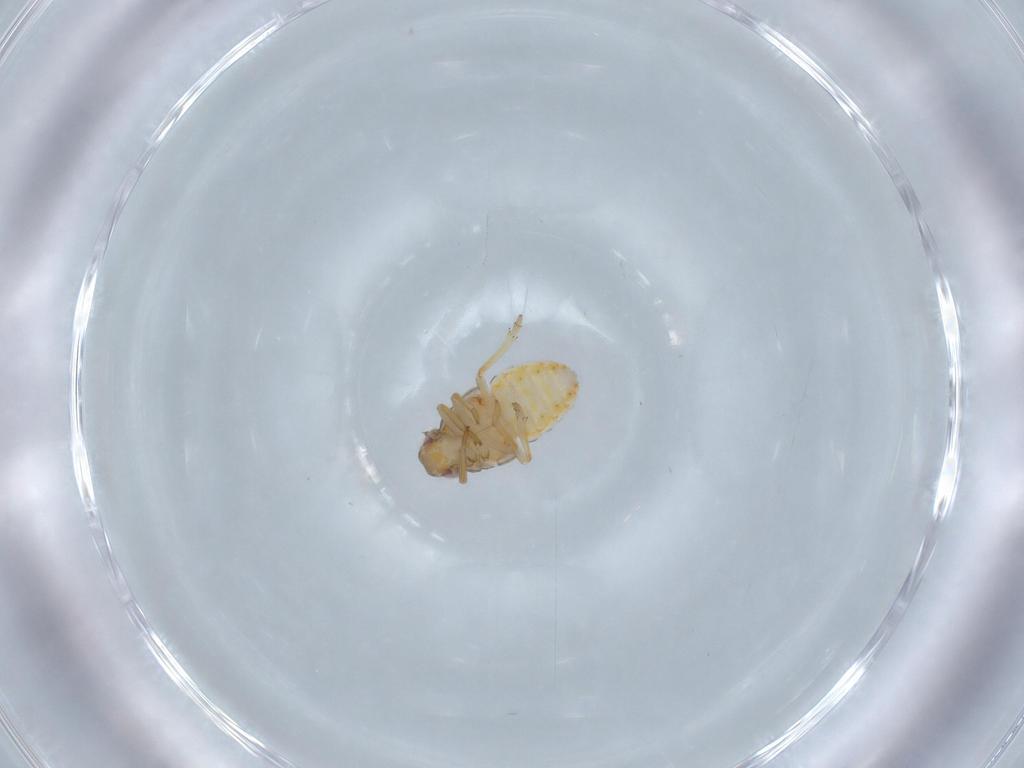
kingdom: Animalia
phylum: Arthropoda
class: Insecta
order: Hemiptera
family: Issidae
